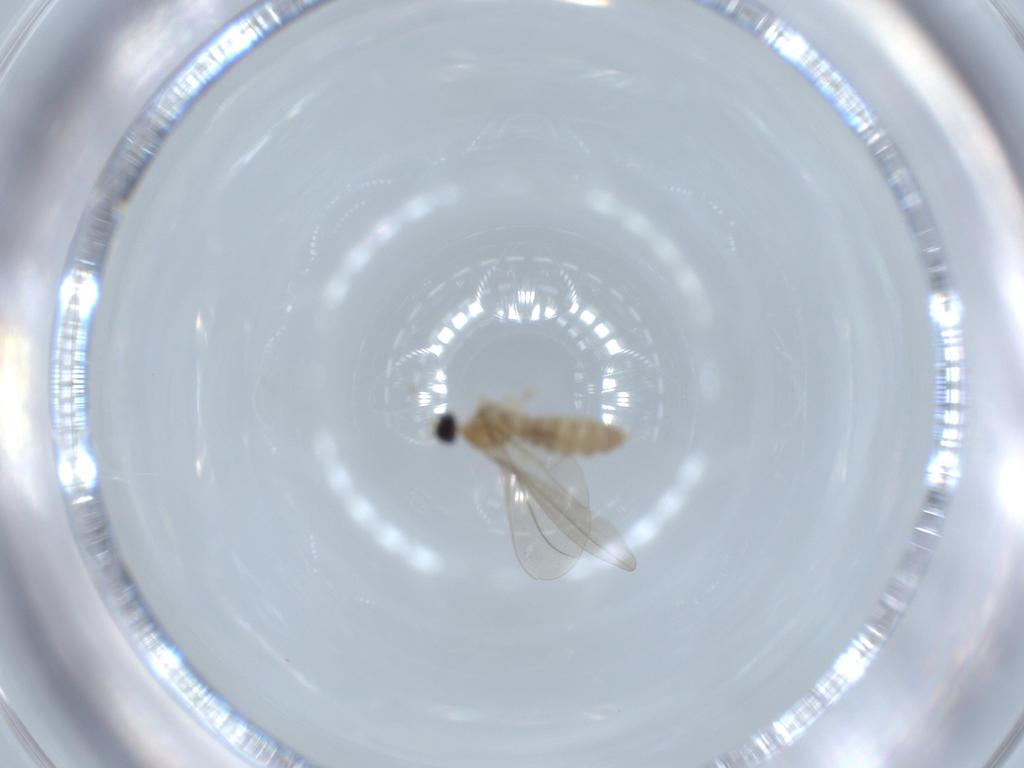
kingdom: Animalia
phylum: Arthropoda
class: Insecta
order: Diptera
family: Cecidomyiidae
